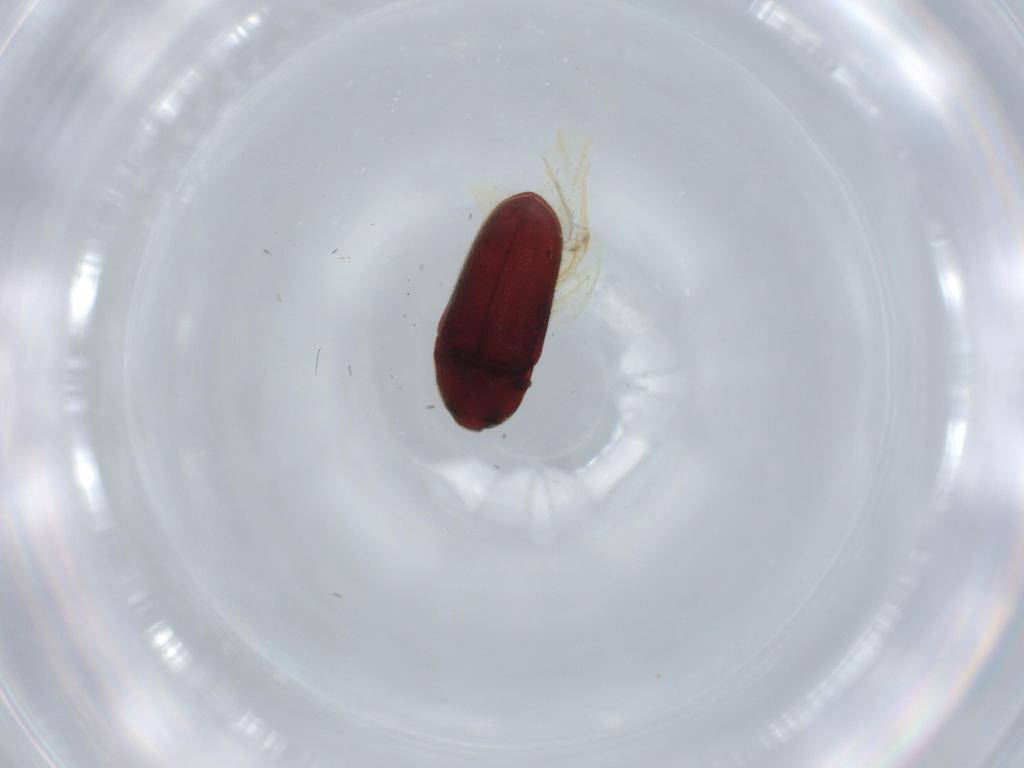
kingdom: Animalia
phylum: Arthropoda
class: Insecta
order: Coleoptera
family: Throscidae
